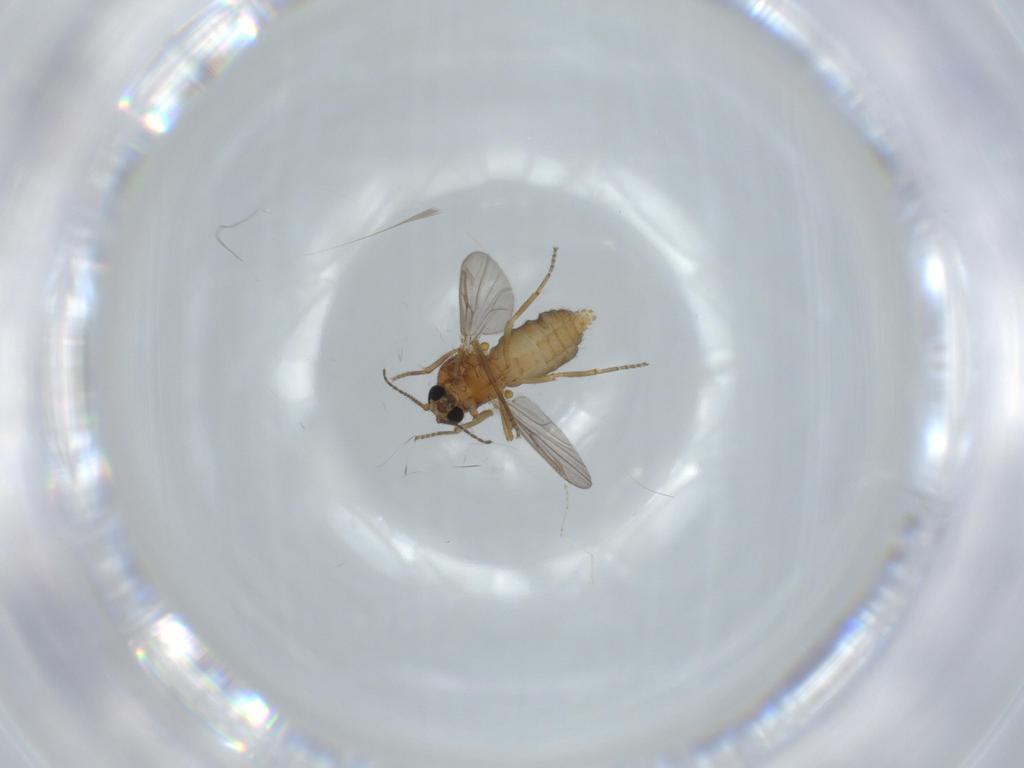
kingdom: Animalia
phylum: Arthropoda
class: Insecta
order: Diptera
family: Ceratopogonidae
